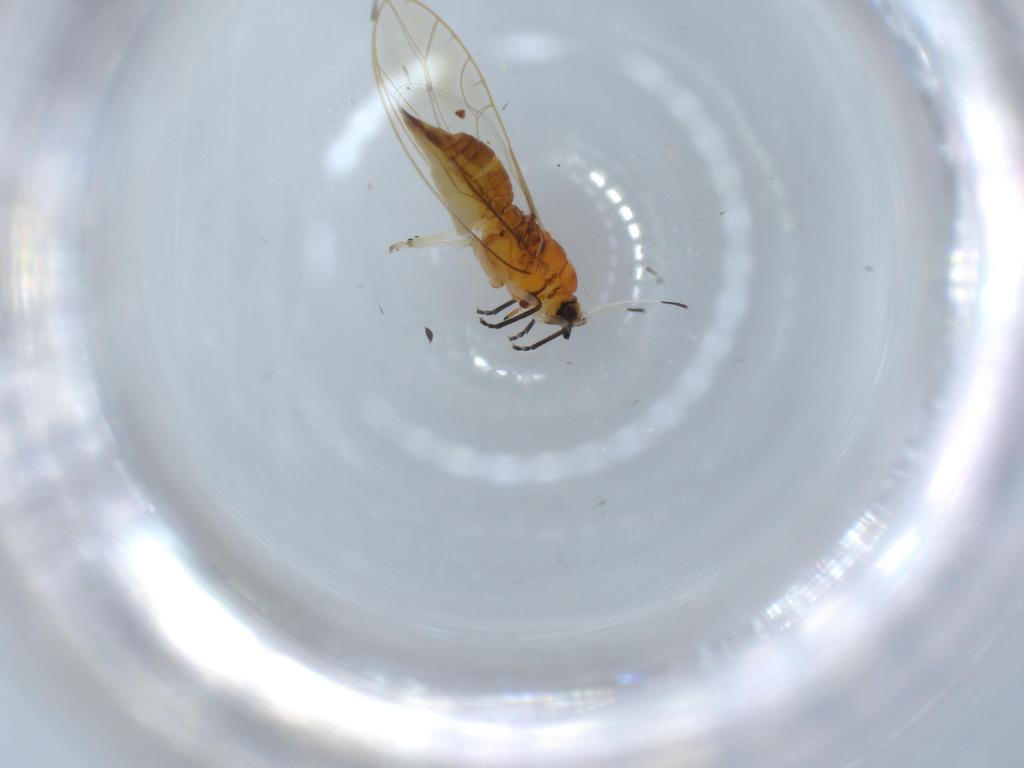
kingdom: Animalia
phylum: Arthropoda
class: Insecta
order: Hemiptera
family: Triozidae
